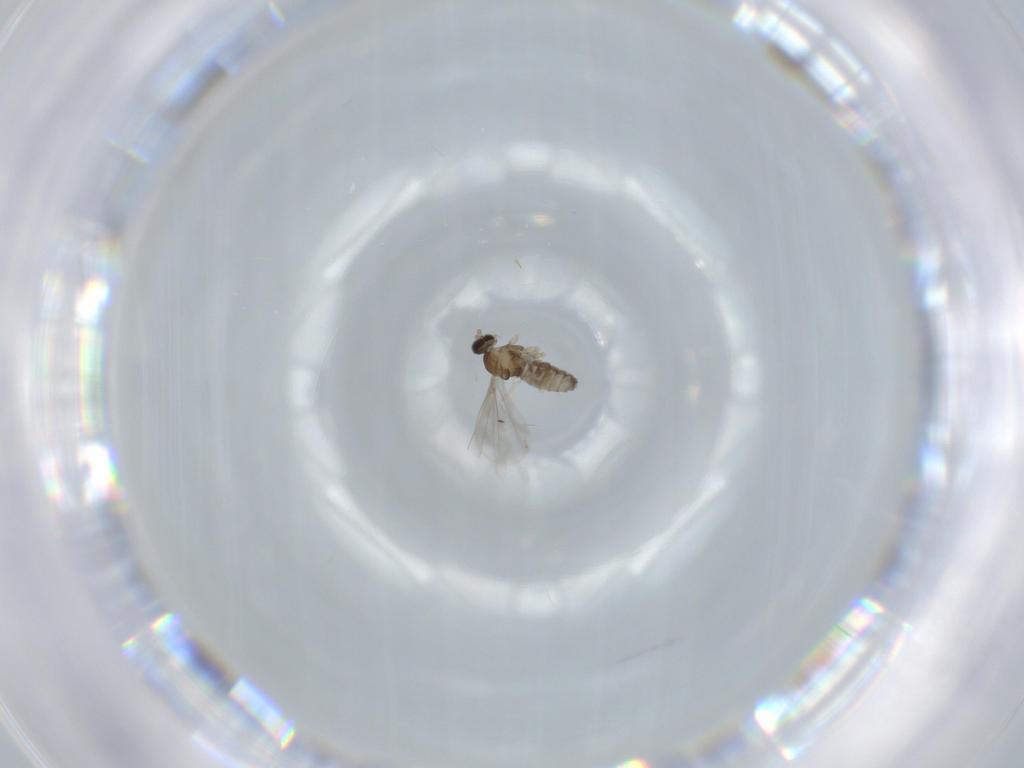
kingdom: Animalia
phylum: Arthropoda
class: Insecta
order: Diptera
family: Cecidomyiidae
